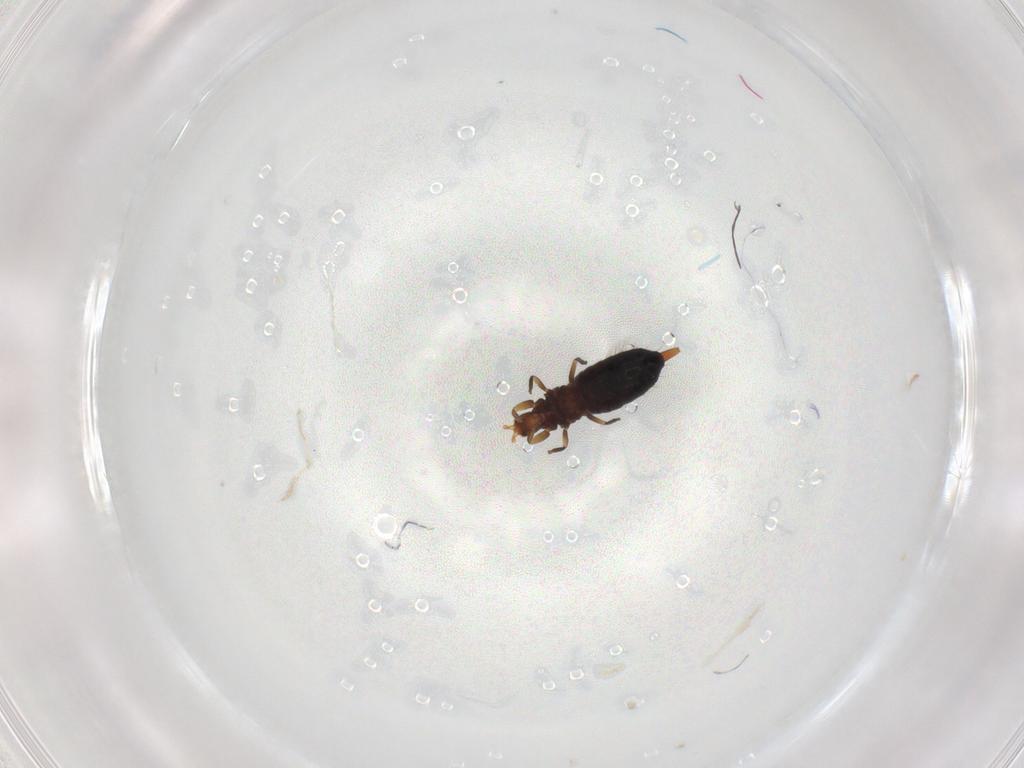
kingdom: Animalia
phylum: Arthropoda
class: Insecta
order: Thysanoptera
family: Phlaeothripidae
